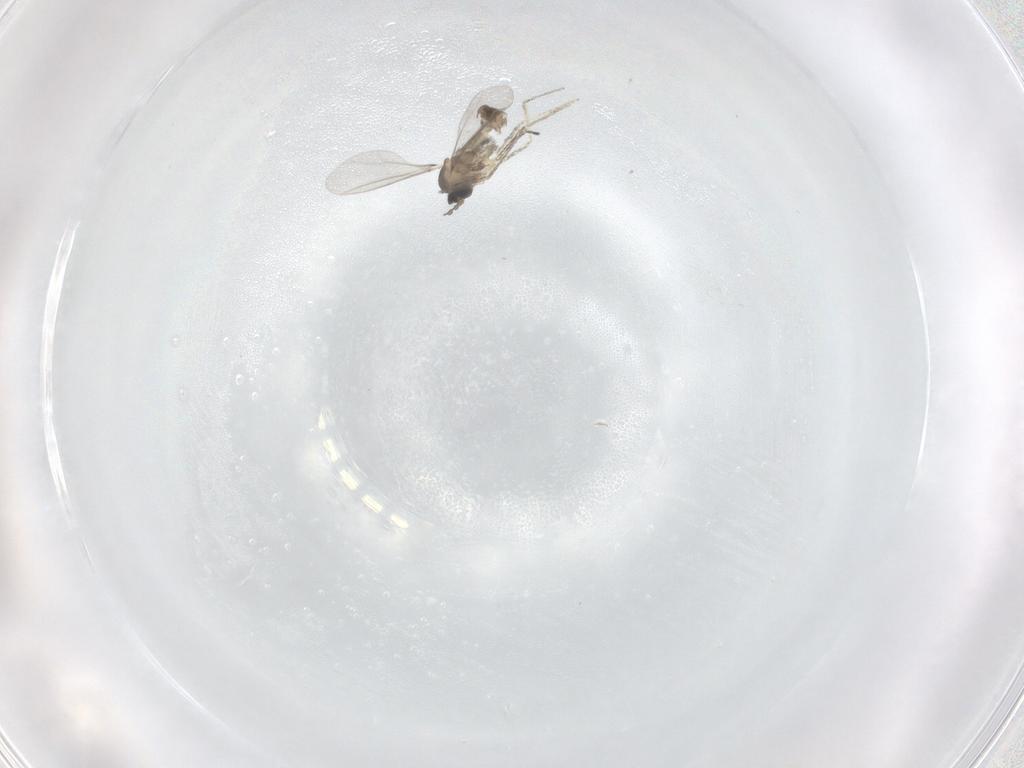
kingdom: Animalia
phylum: Arthropoda
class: Insecta
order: Diptera
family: Cecidomyiidae
